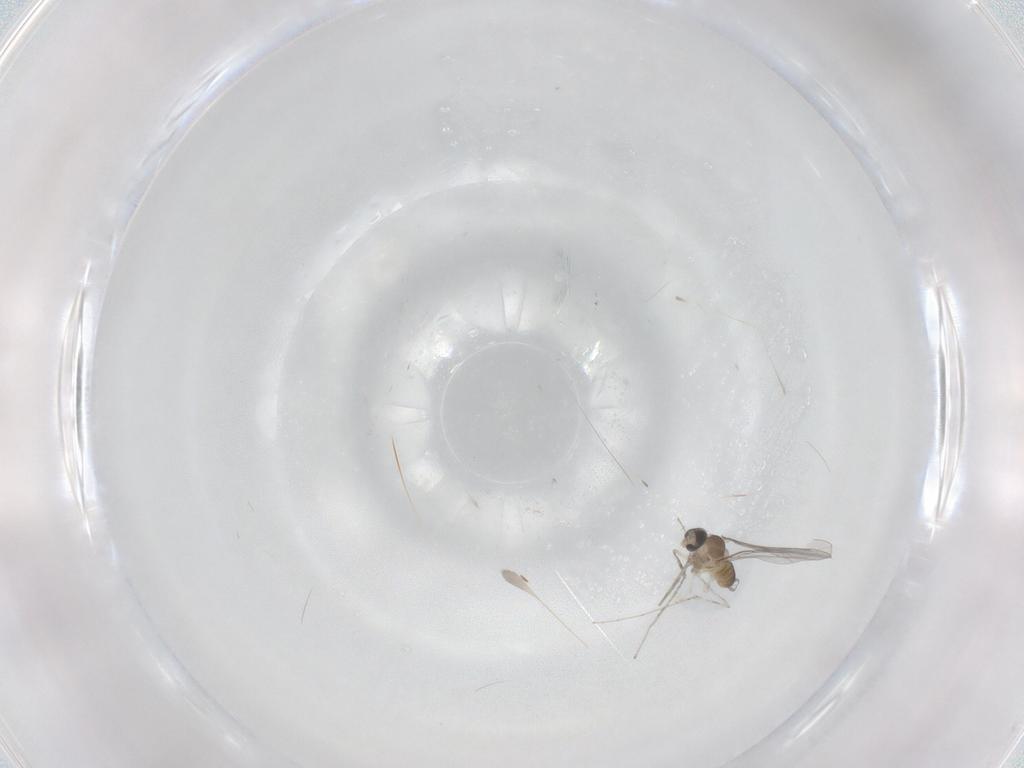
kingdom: Animalia
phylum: Arthropoda
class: Insecta
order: Diptera
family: Cecidomyiidae
